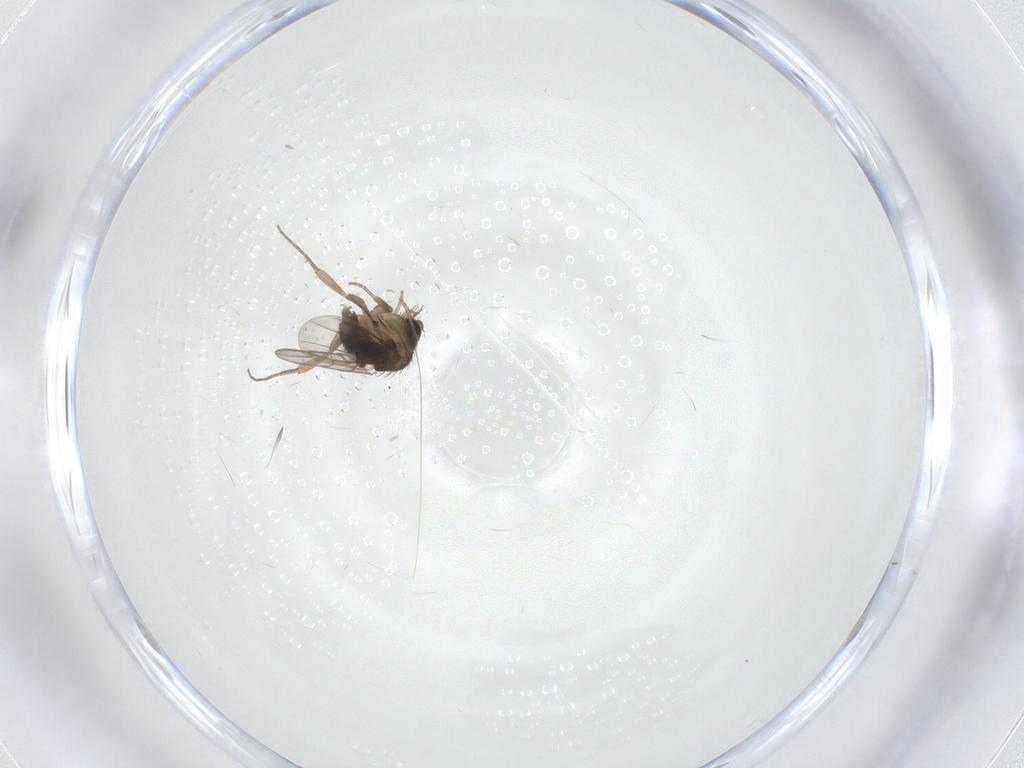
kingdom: Animalia
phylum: Arthropoda
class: Insecta
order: Diptera
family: Phoridae
